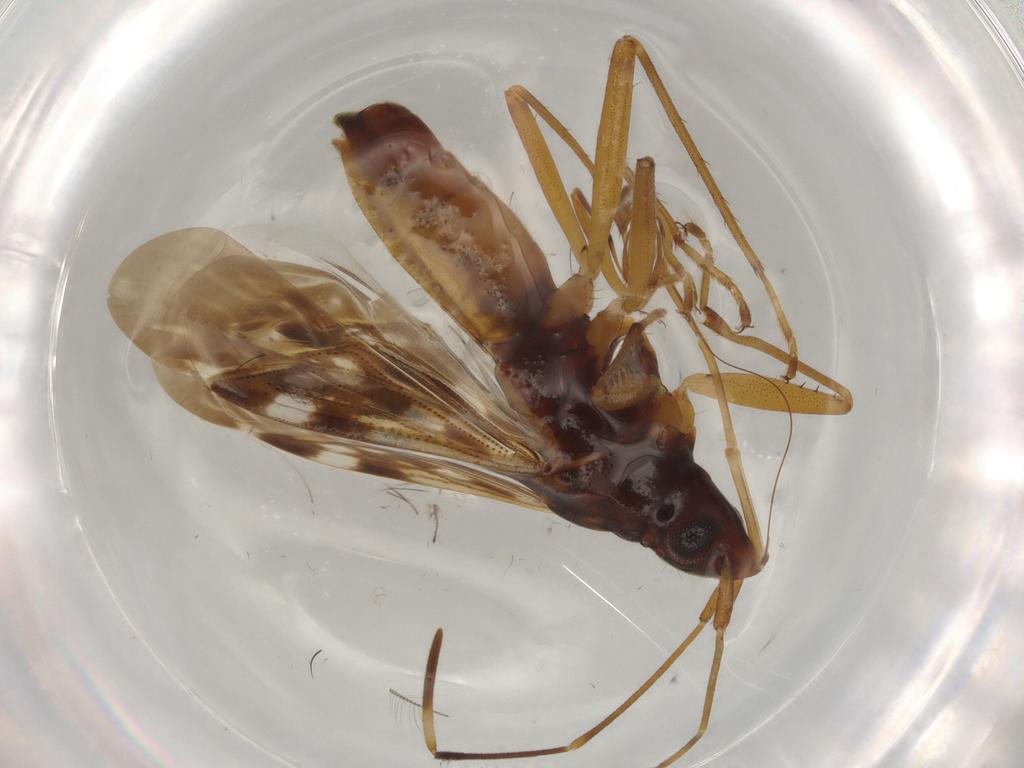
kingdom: Animalia
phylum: Arthropoda
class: Insecta
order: Hemiptera
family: Rhyparochromidae
